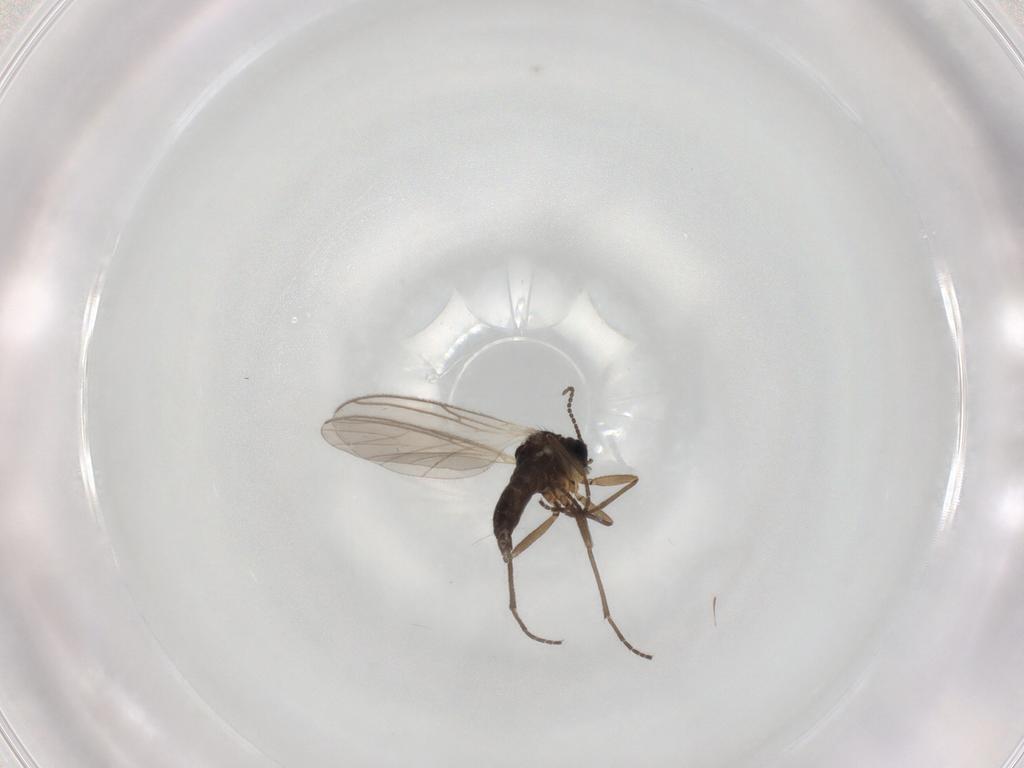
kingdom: Animalia
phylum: Arthropoda
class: Insecta
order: Diptera
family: Sciaridae
